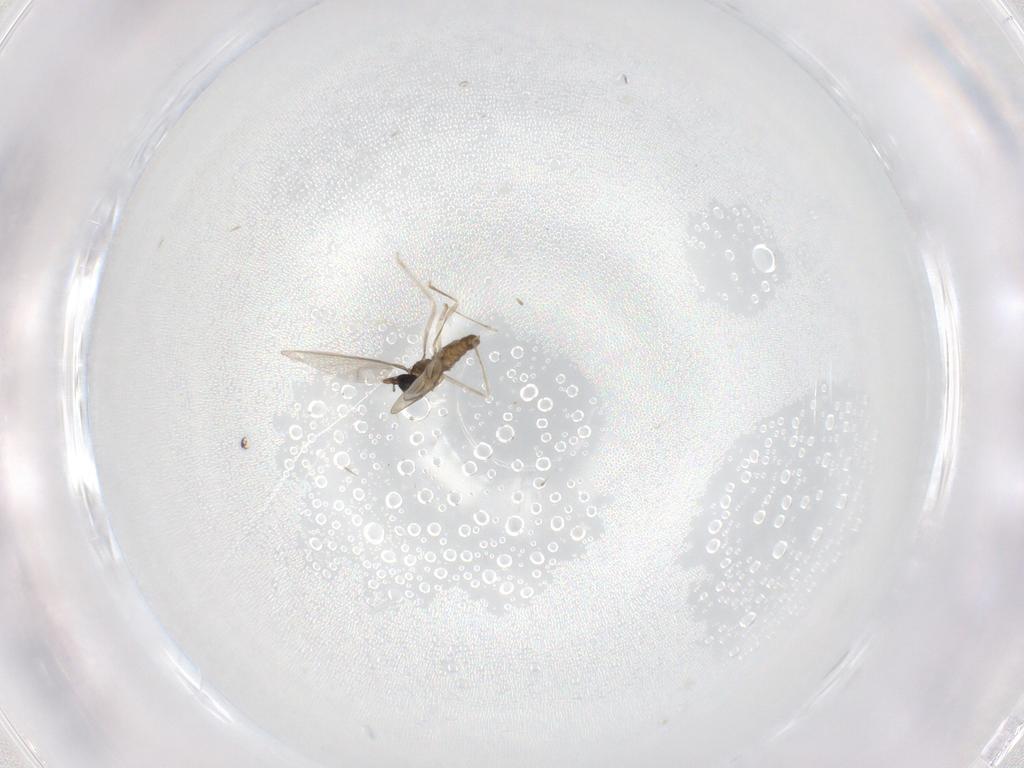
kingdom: Animalia
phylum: Arthropoda
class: Insecta
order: Diptera
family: Cecidomyiidae
